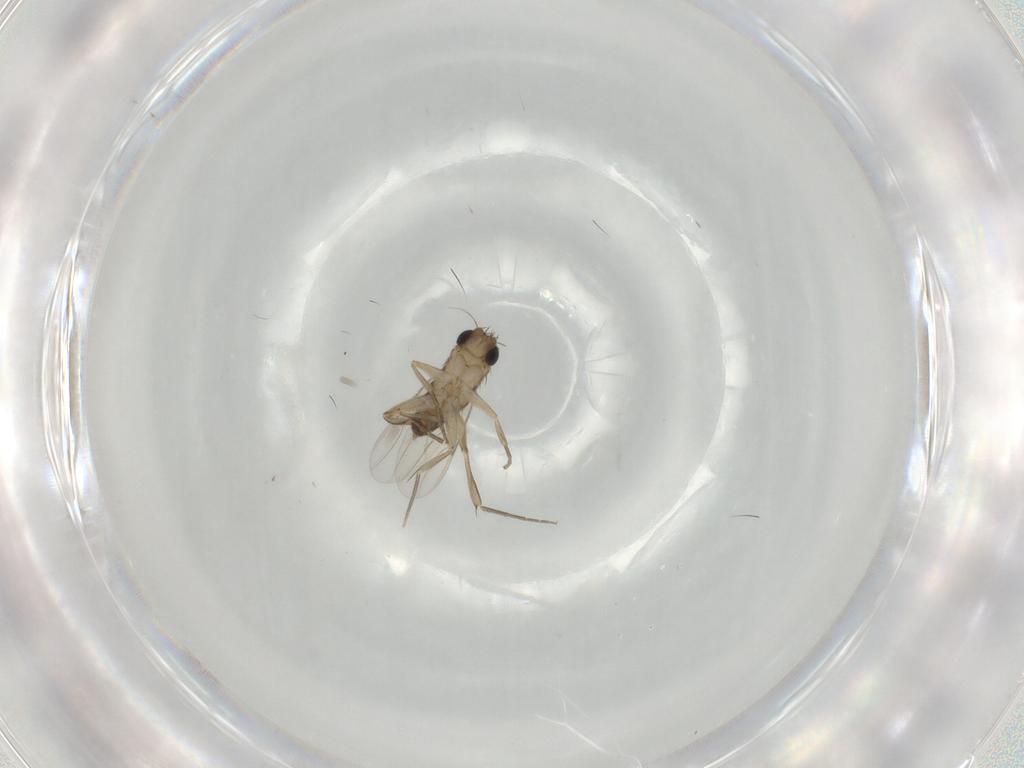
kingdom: Animalia
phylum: Arthropoda
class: Insecta
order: Diptera
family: Phoridae
